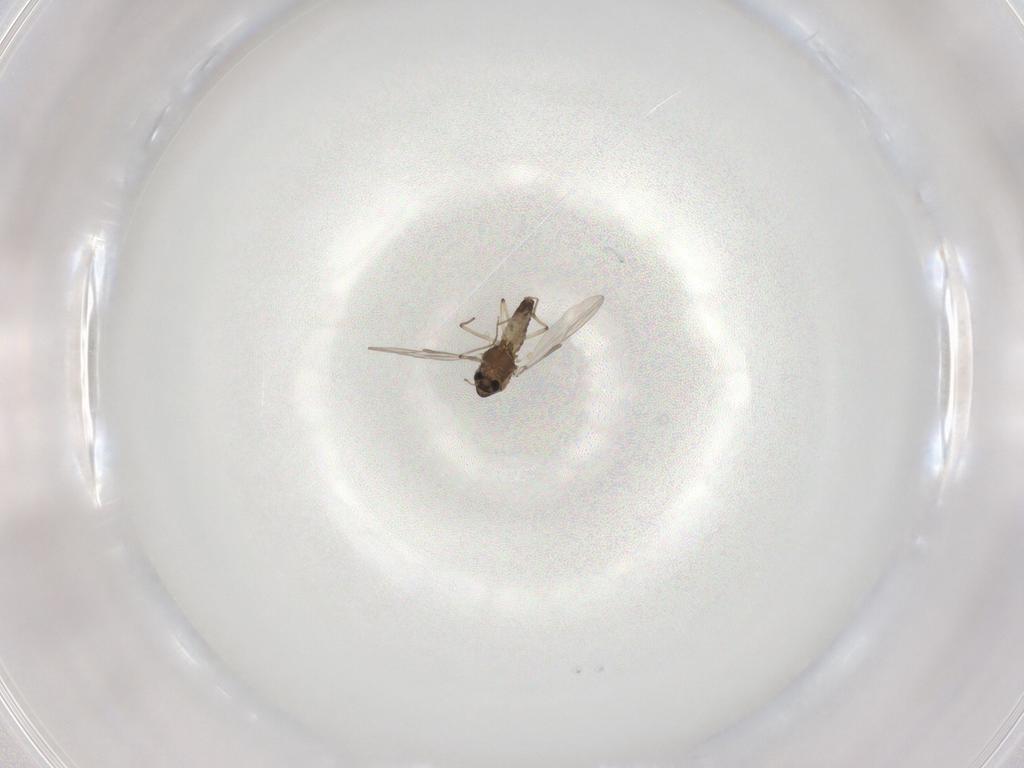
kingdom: Animalia
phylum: Arthropoda
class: Insecta
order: Diptera
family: Chironomidae
